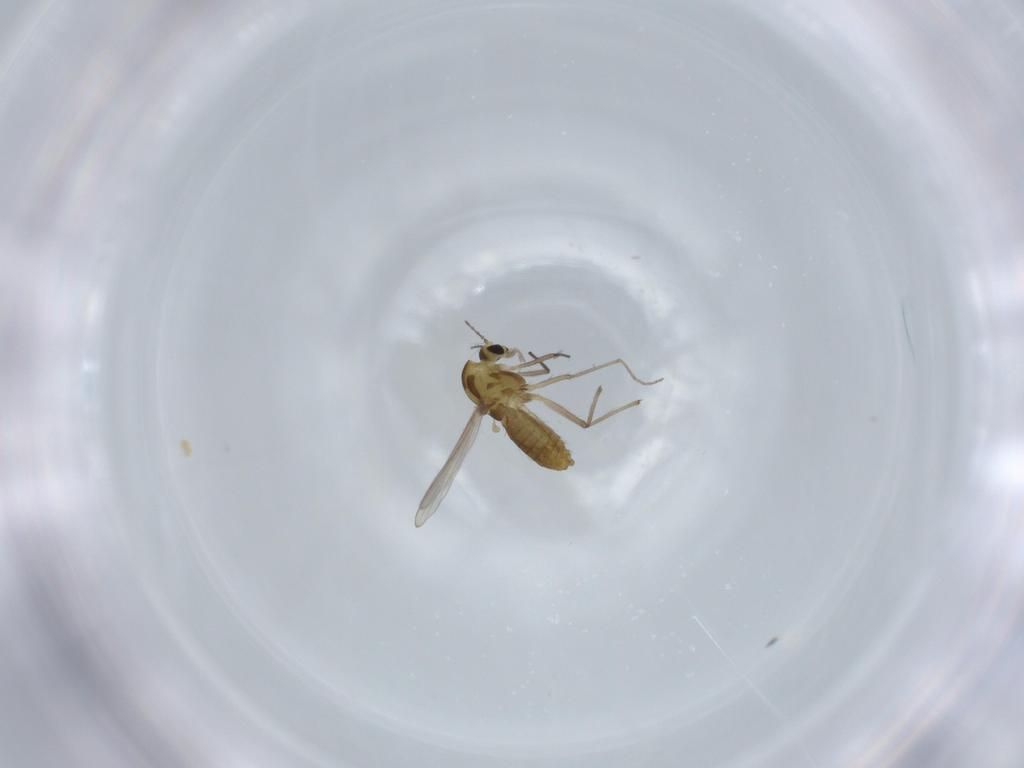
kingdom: Animalia
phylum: Arthropoda
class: Insecta
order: Diptera
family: Chironomidae
